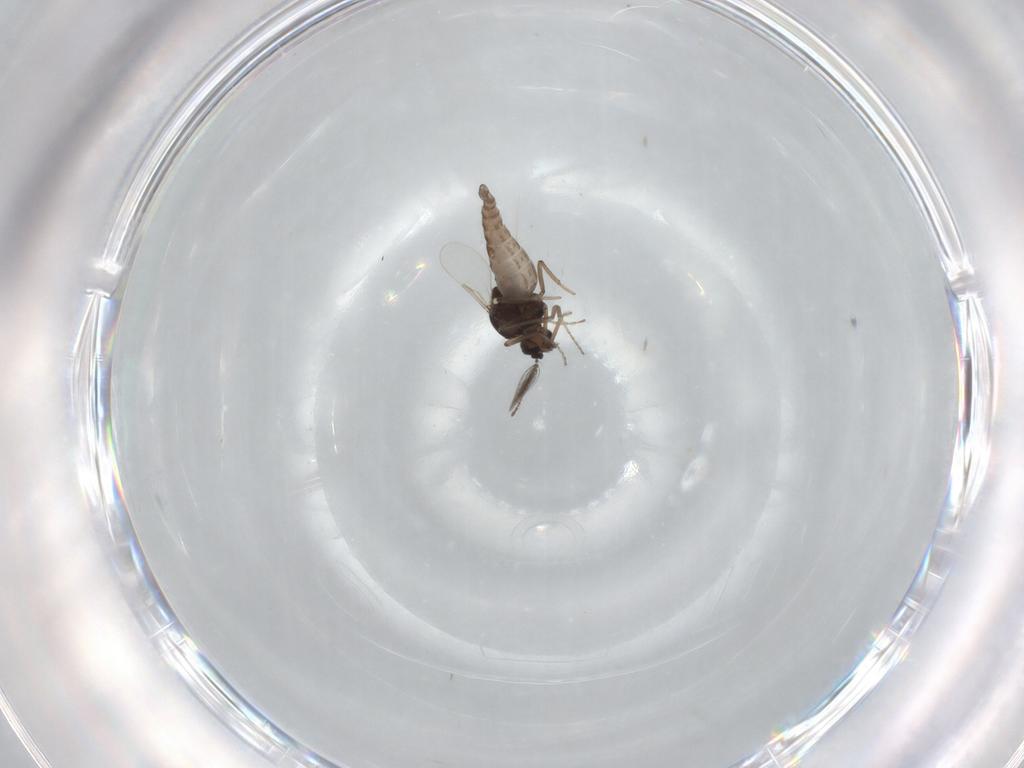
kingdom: Animalia
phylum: Arthropoda
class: Insecta
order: Diptera
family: Ceratopogonidae
